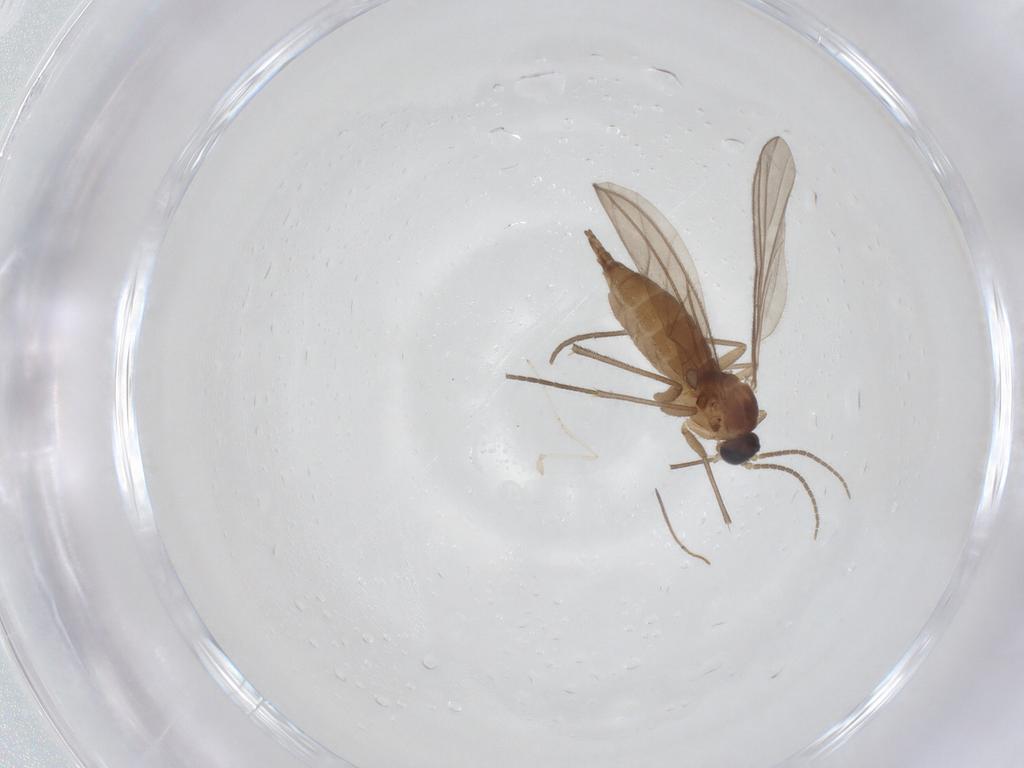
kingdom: Animalia
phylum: Arthropoda
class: Insecta
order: Diptera
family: Sciaridae
